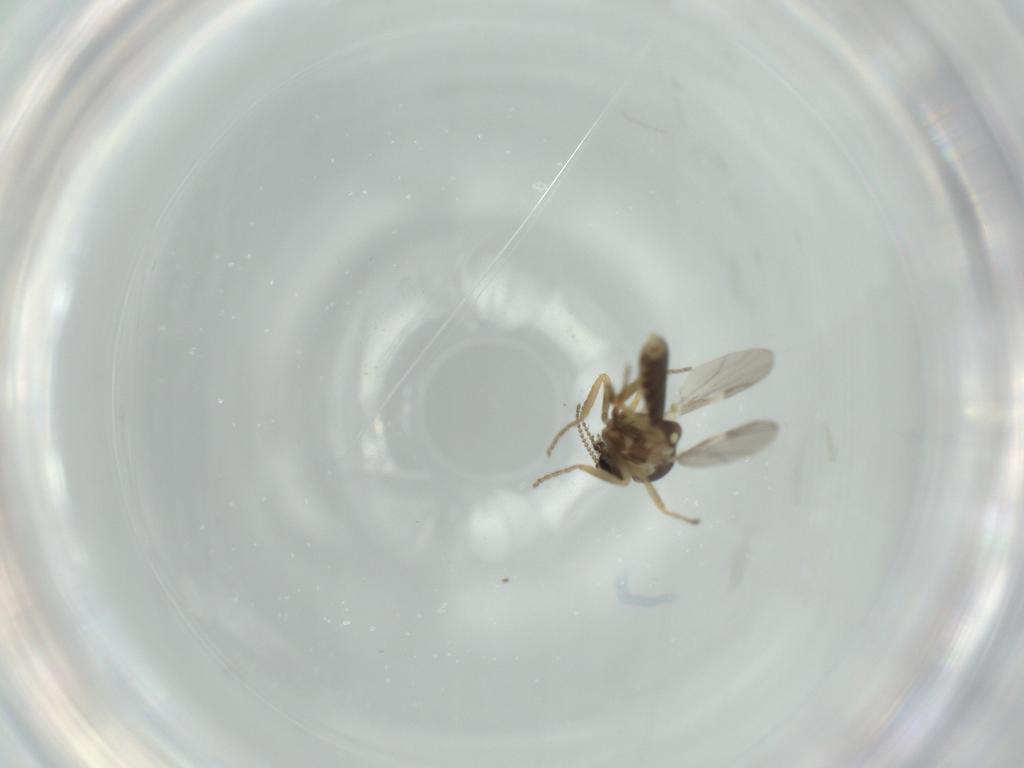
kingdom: Animalia
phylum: Arthropoda
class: Insecta
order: Diptera
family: Ceratopogonidae
